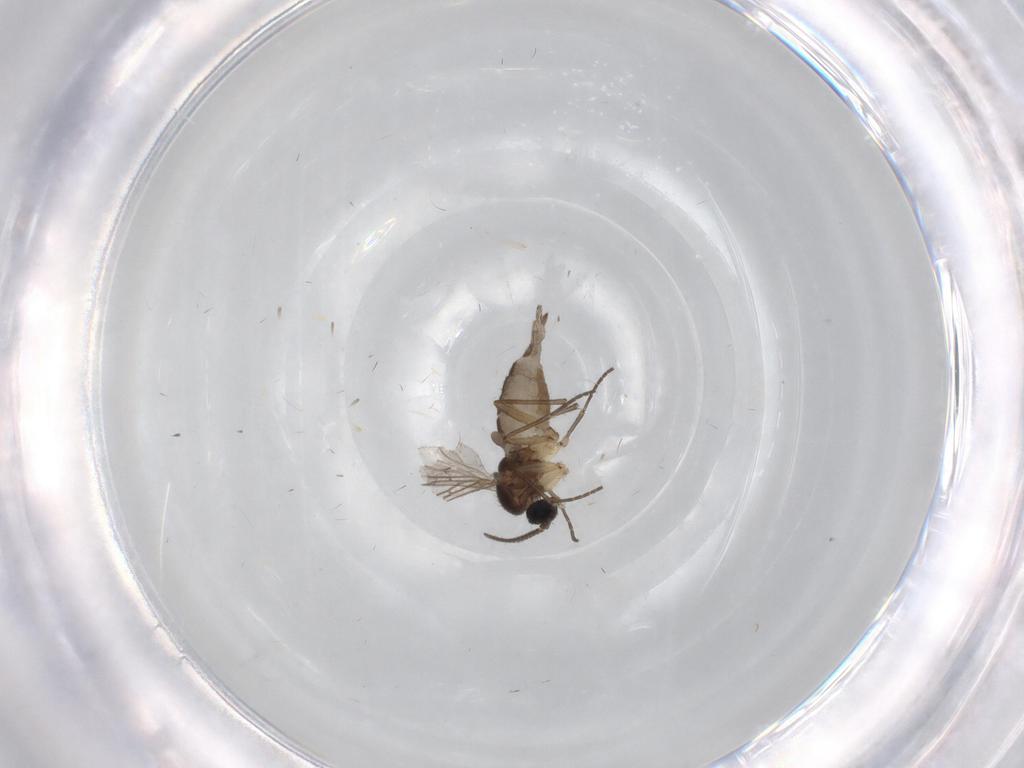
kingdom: Animalia
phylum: Arthropoda
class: Insecta
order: Diptera
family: Sciaridae
